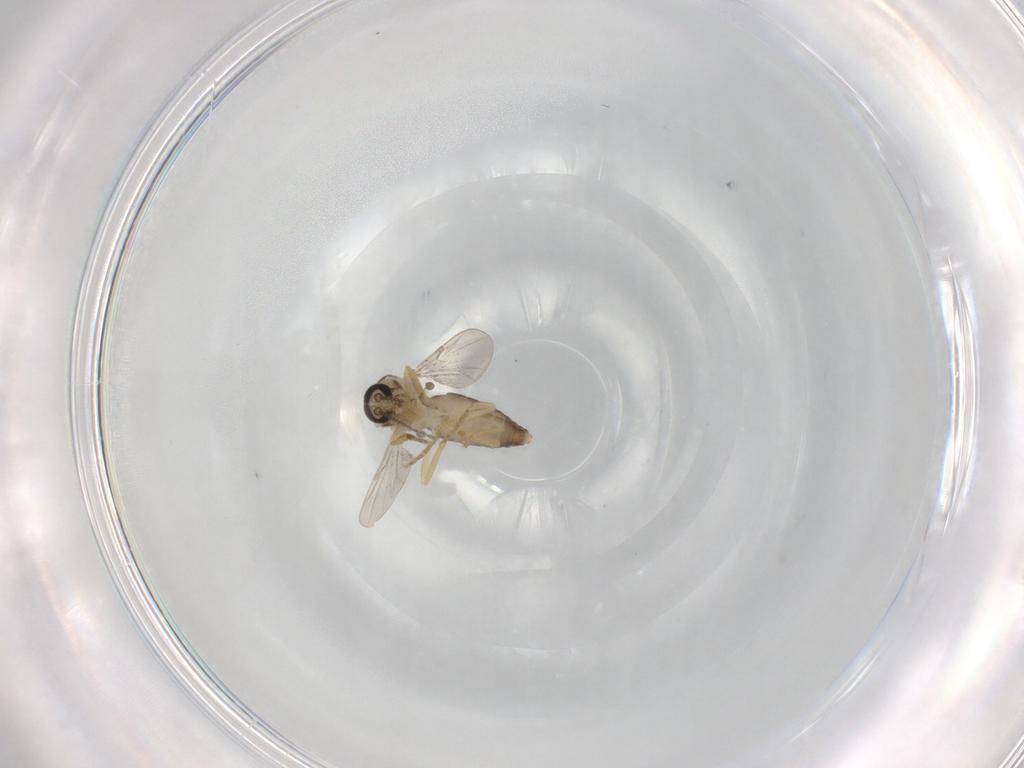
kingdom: Animalia
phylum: Arthropoda
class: Insecta
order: Diptera
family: Ceratopogonidae
